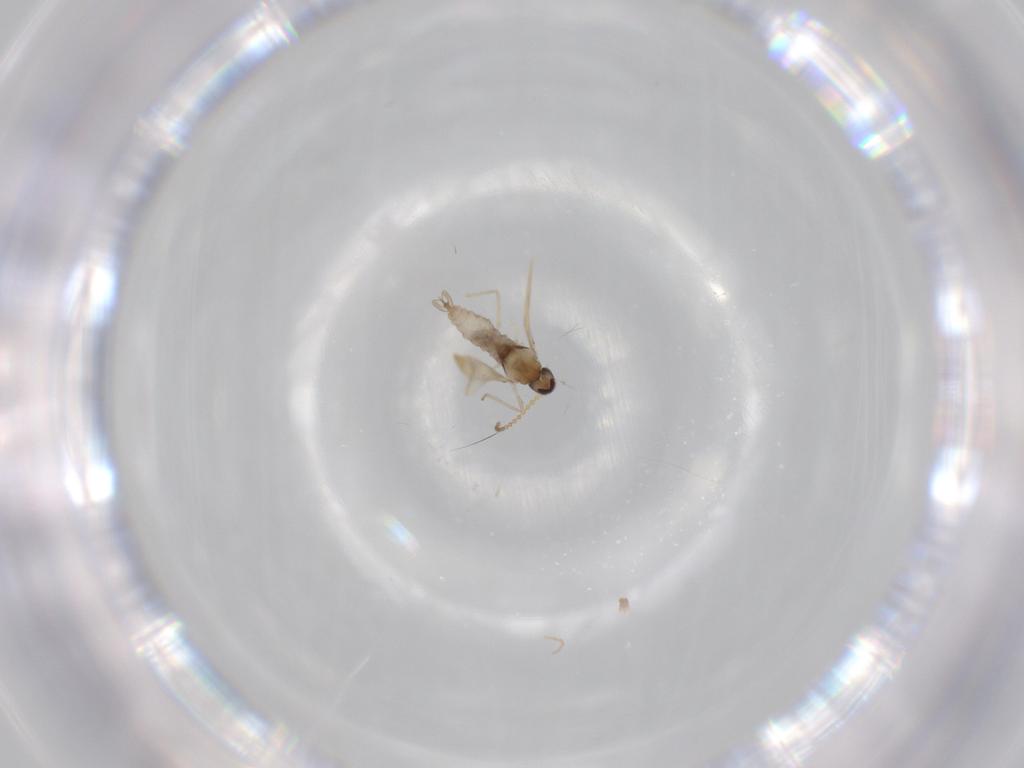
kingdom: Animalia
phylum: Arthropoda
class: Insecta
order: Diptera
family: Cecidomyiidae
